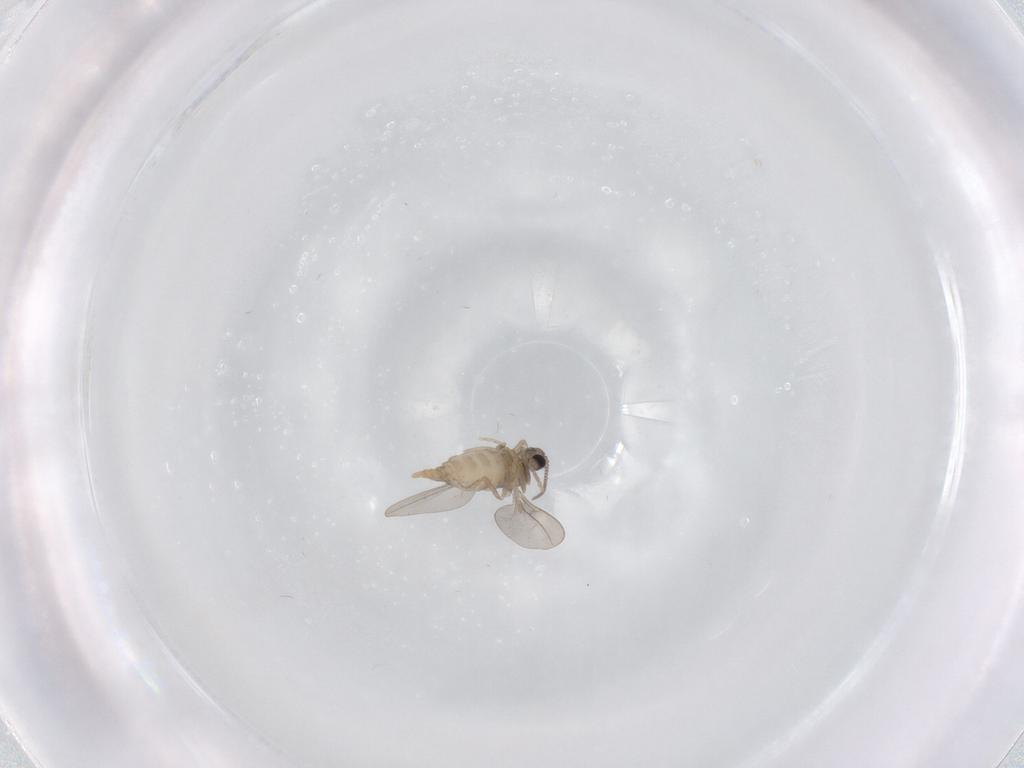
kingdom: Animalia
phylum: Arthropoda
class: Insecta
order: Diptera
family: Cecidomyiidae
